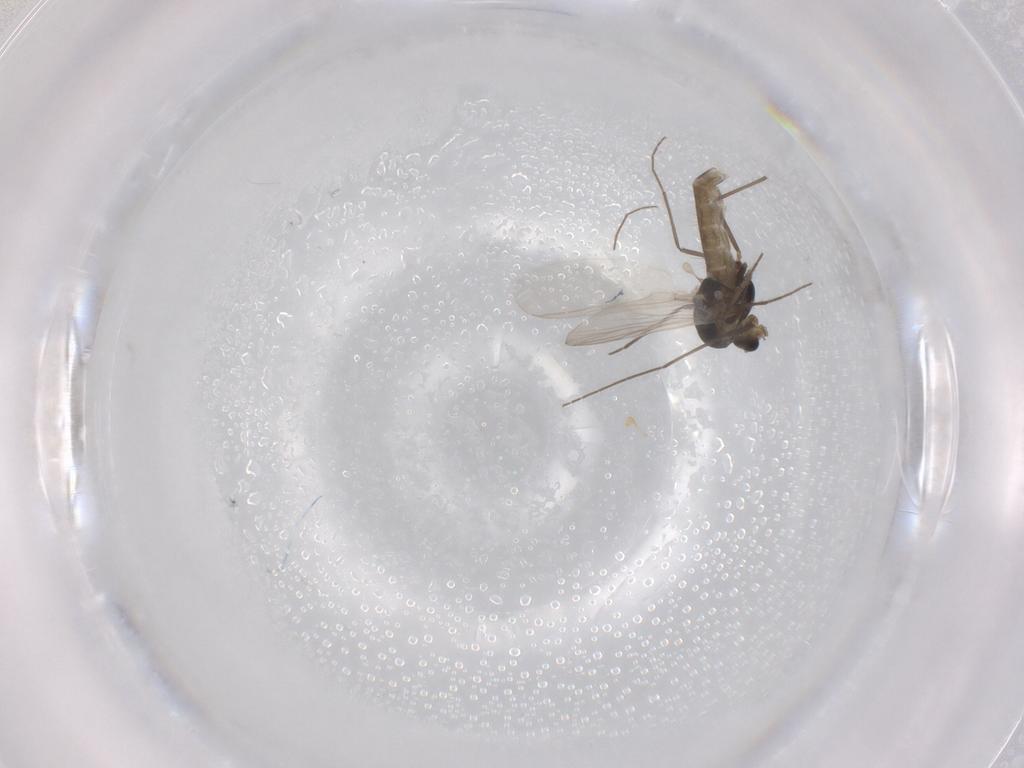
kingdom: Animalia
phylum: Arthropoda
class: Insecta
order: Diptera
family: Chironomidae
